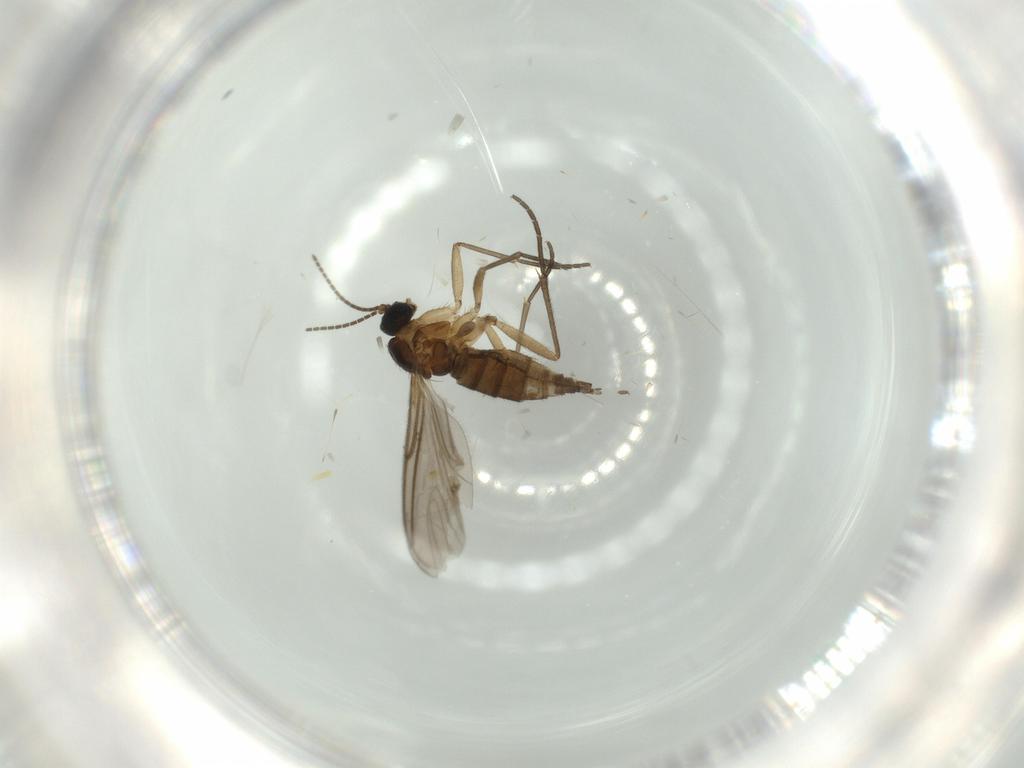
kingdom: Animalia
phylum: Arthropoda
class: Insecta
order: Diptera
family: Sciaridae
